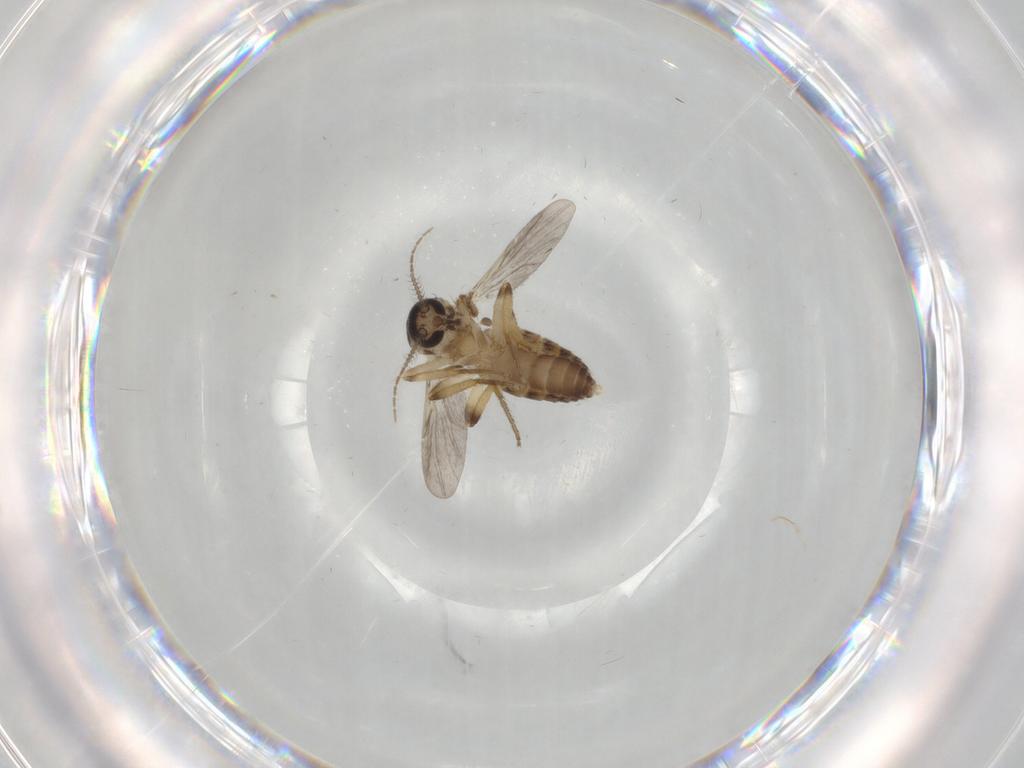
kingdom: Animalia
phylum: Arthropoda
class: Insecta
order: Diptera
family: Ceratopogonidae
